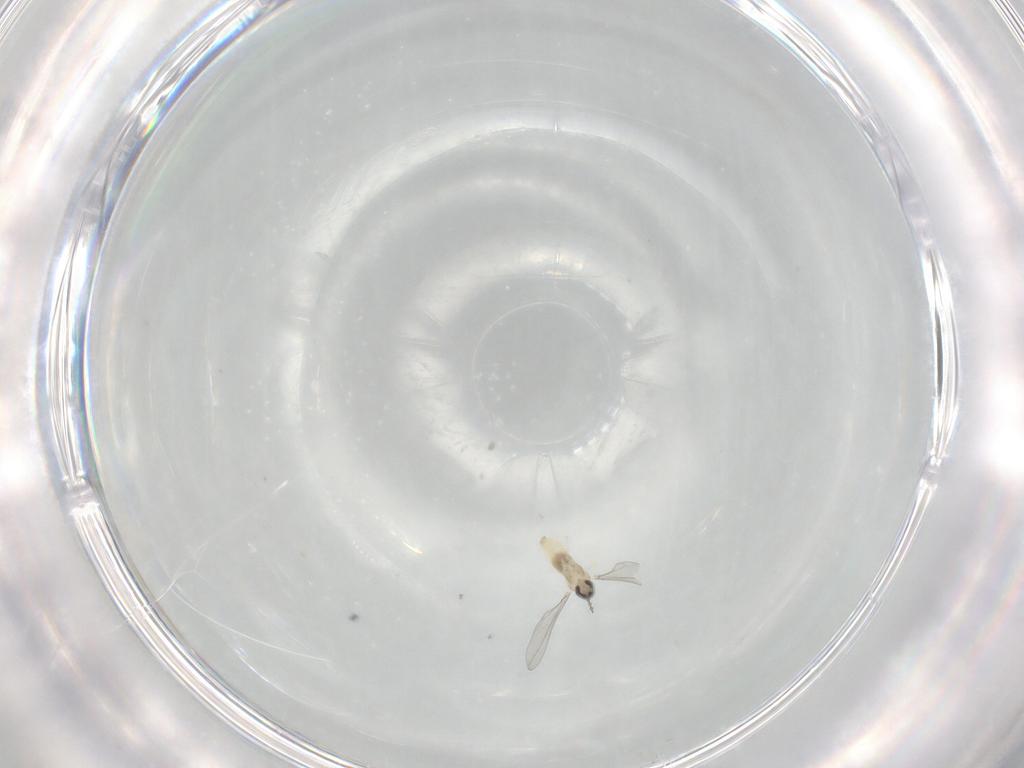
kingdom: Animalia
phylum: Arthropoda
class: Insecta
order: Diptera
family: Cecidomyiidae
